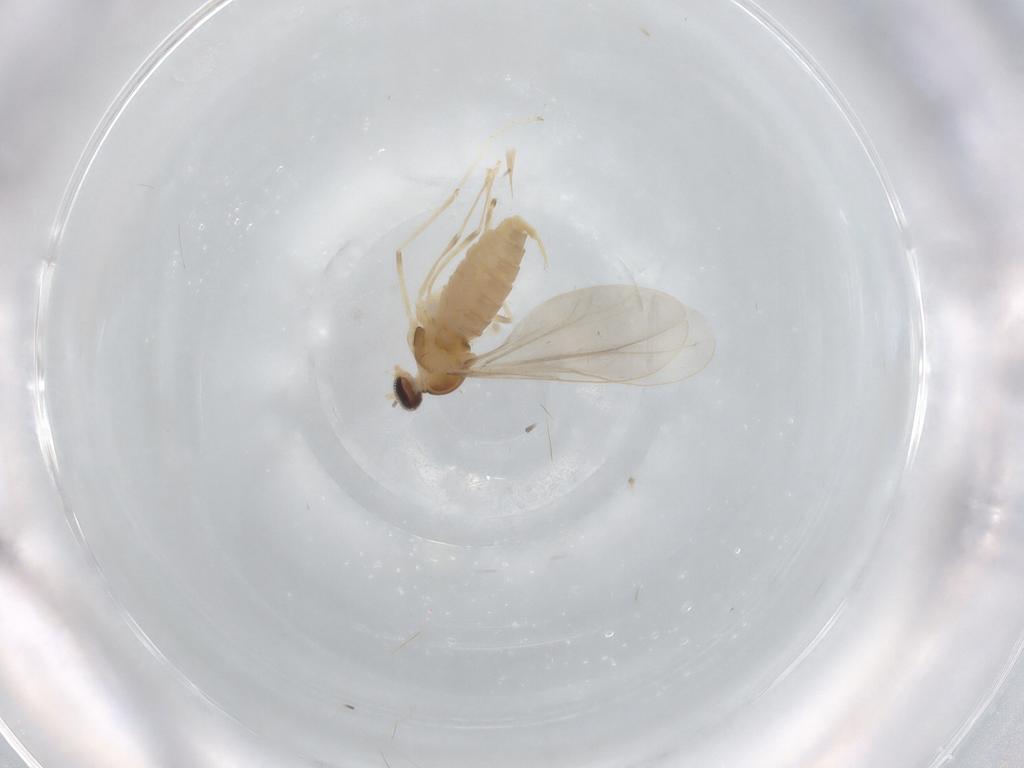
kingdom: Animalia
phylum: Arthropoda
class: Insecta
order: Diptera
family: Cecidomyiidae
